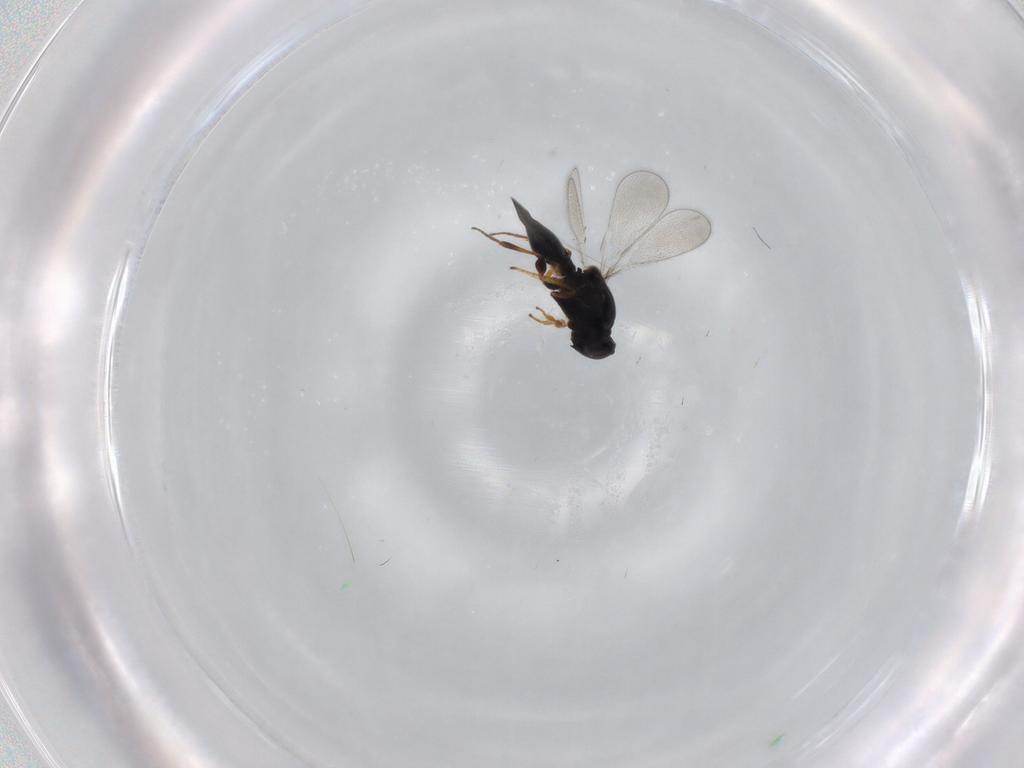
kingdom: Animalia
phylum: Arthropoda
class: Insecta
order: Hymenoptera
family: Platygastridae
